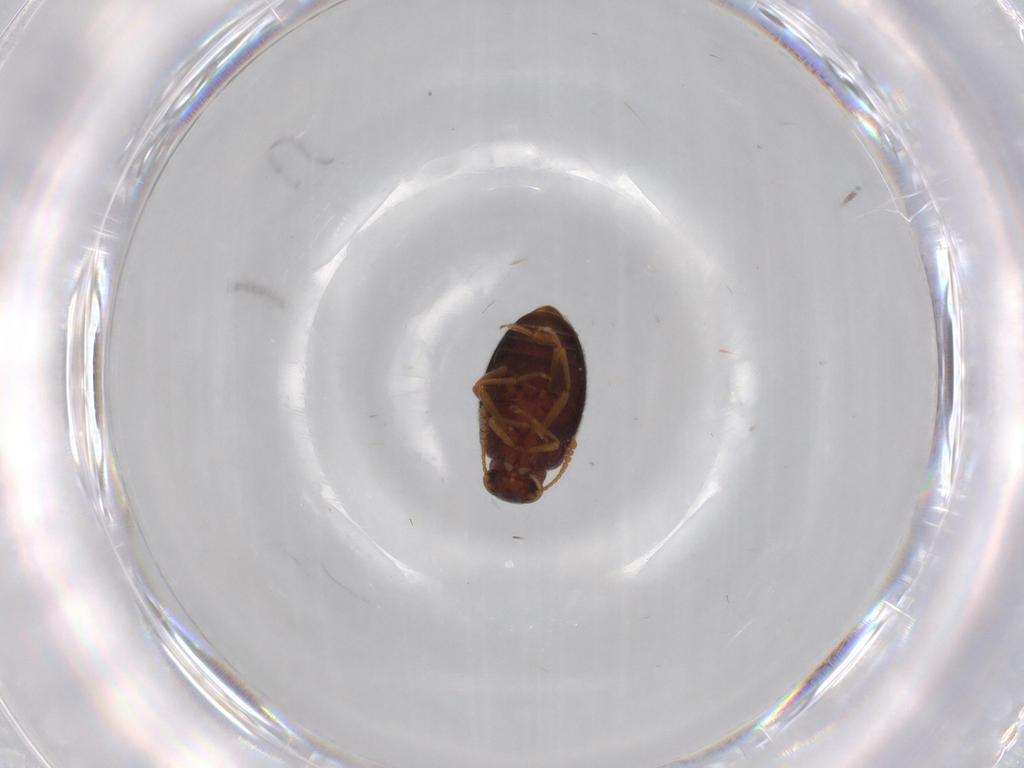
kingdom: Animalia
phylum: Arthropoda
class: Insecta
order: Coleoptera
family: Aderidae
